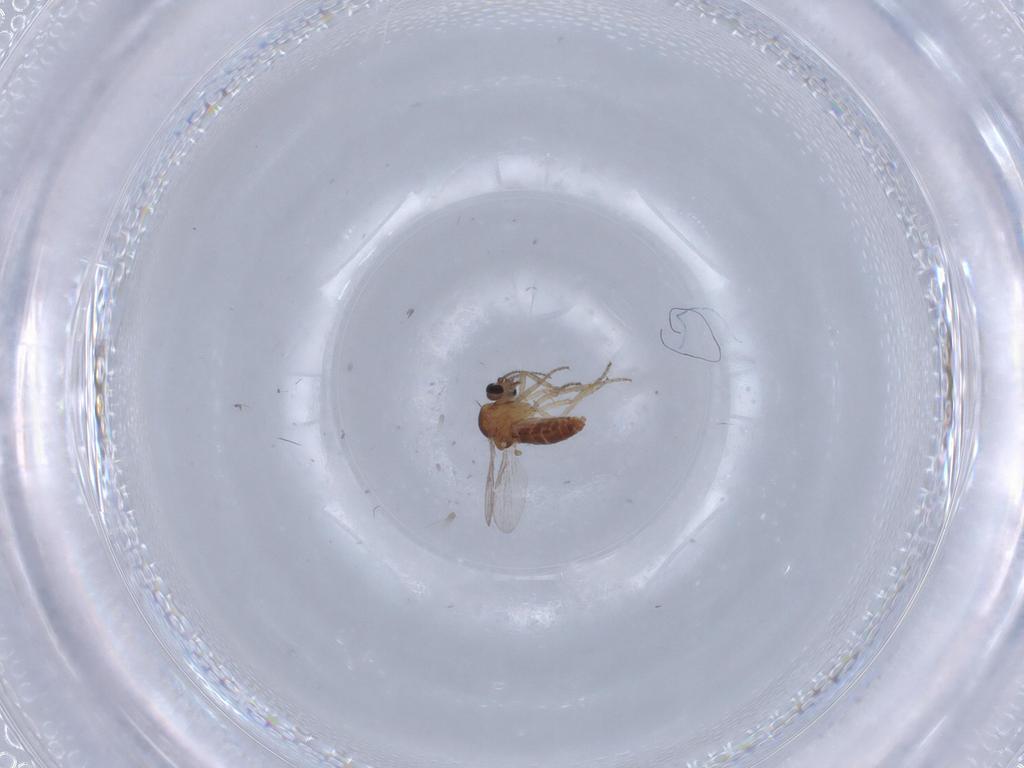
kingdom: Animalia
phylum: Arthropoda
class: Insecta
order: Diptera
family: Ceratopogonidae
